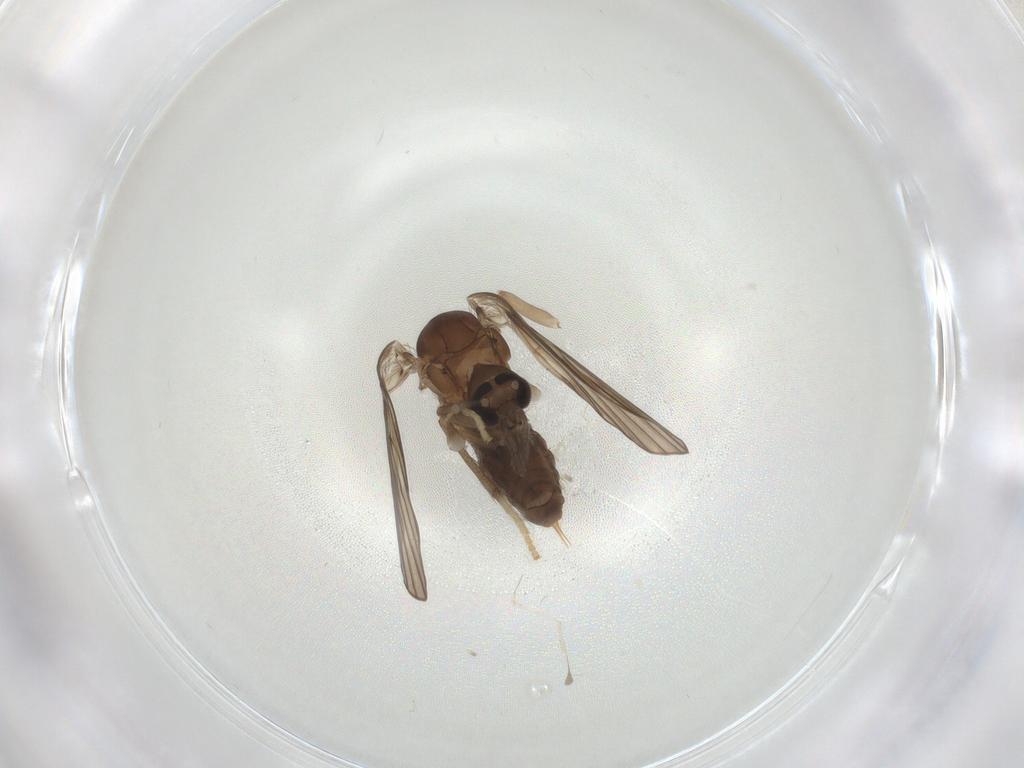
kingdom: Animalia
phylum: Arthropoda
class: Insecta
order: Diptera
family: Psychodidae
